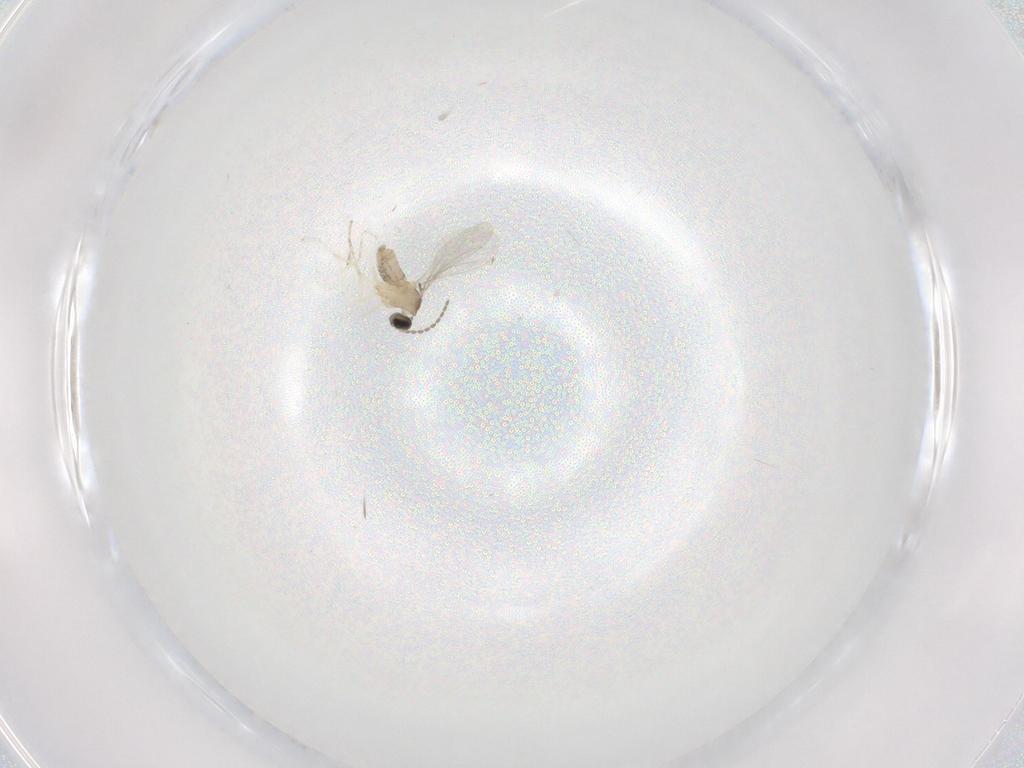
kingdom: Animalia
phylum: Arthropoda
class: Insecta
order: Diptera
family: Cecidomyiidae
